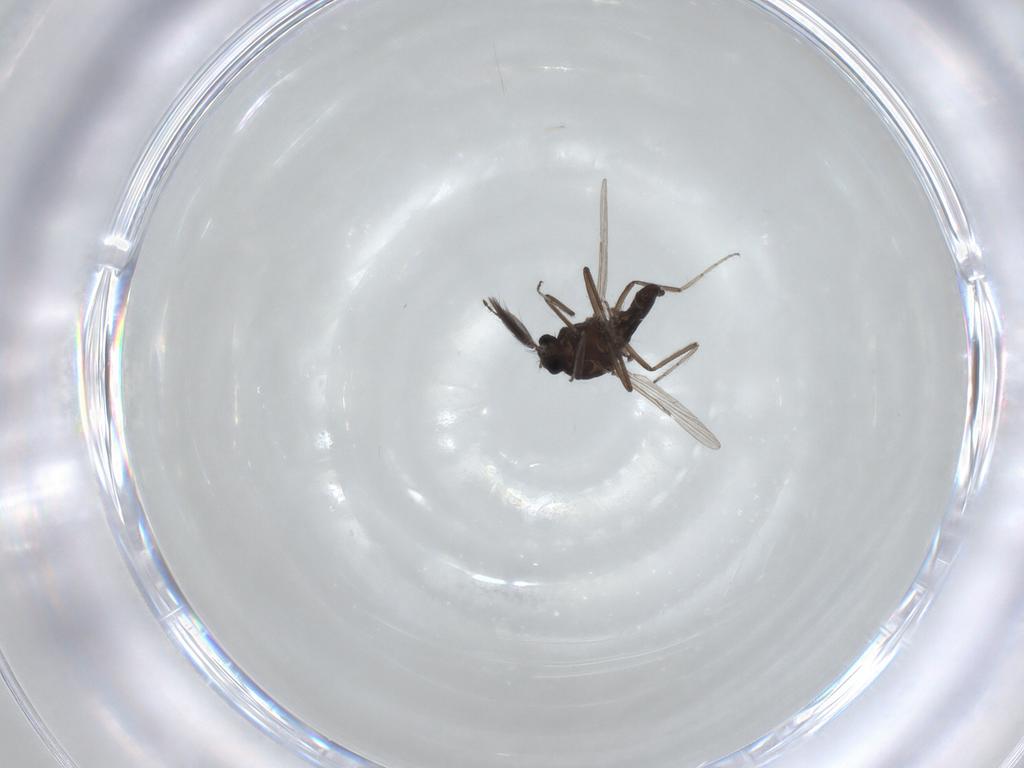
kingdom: Animalia
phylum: Arthropoda
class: Insecta
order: Diptera
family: Ceratopogonidae
